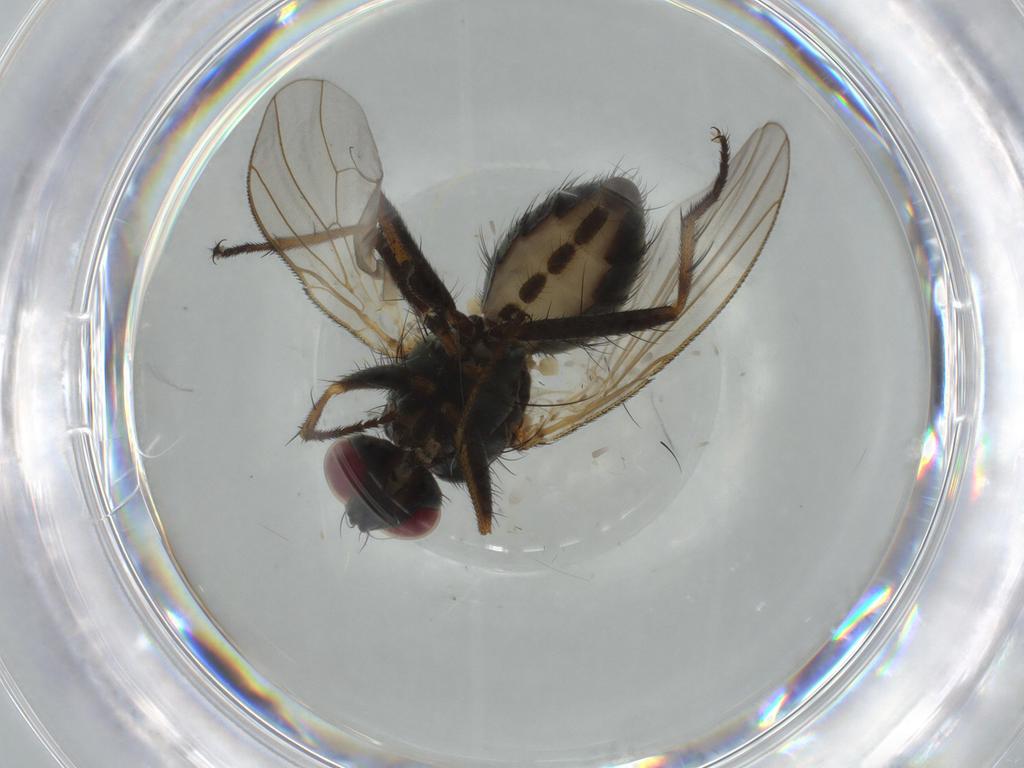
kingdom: Animalia
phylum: Arthropoda
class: Insecta
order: Diptera
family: Muscidae
